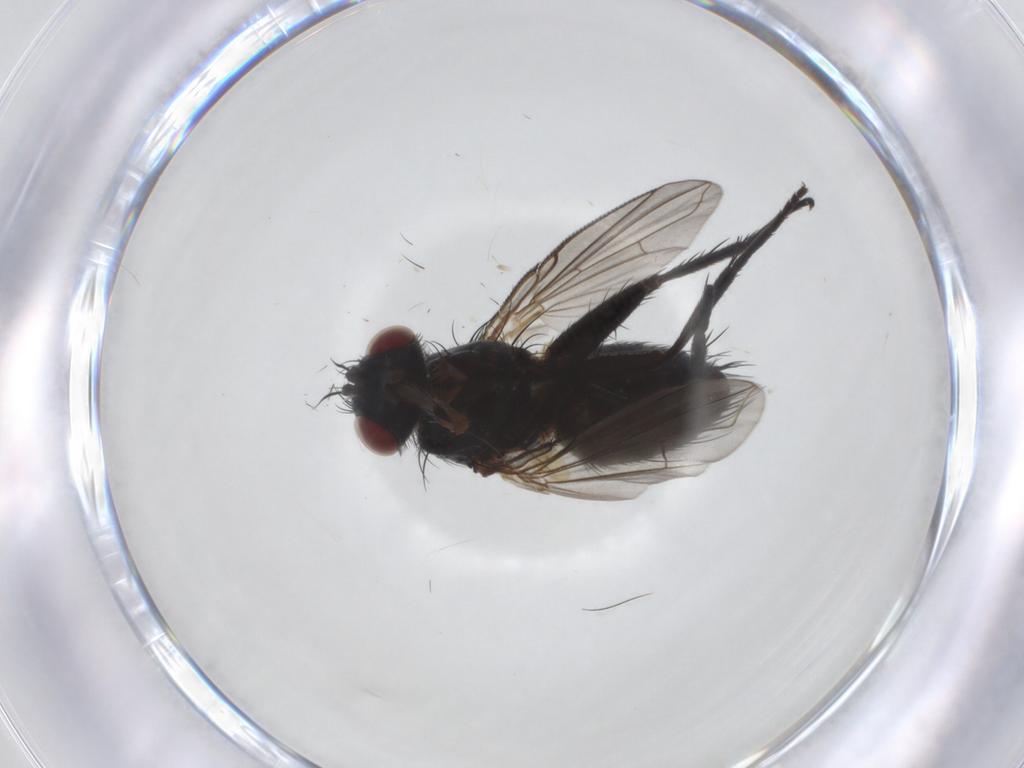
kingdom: Animalia
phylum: Arthropoda
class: Insecta
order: Diptera
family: Tachinidae
